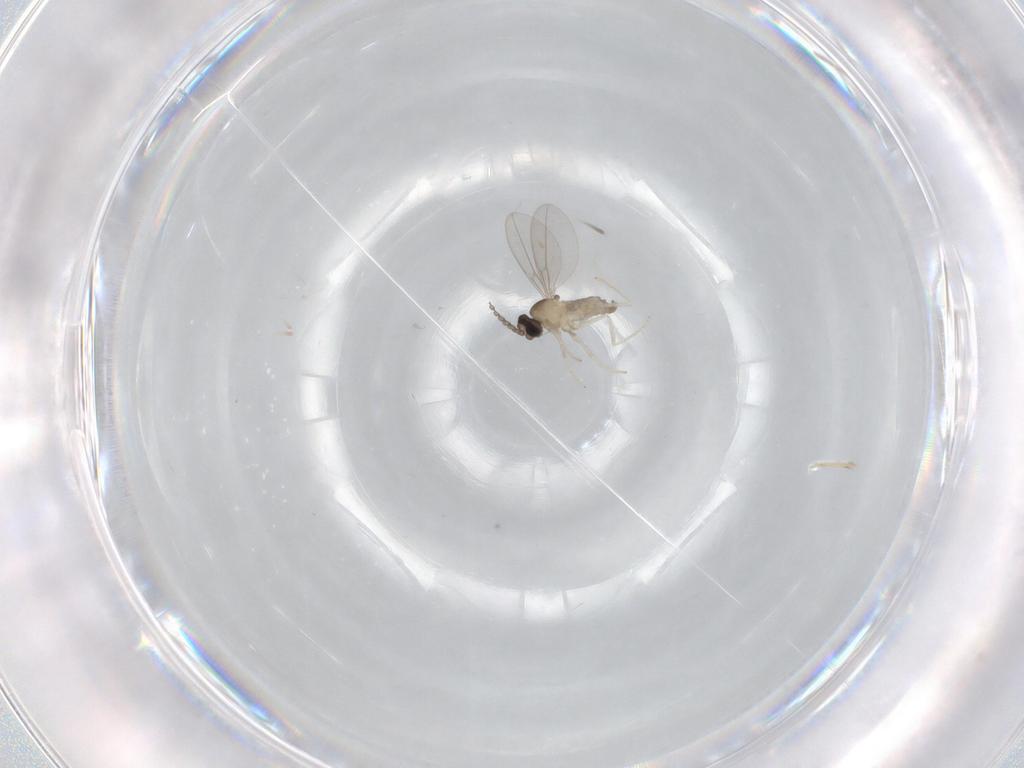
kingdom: Animalia
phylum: Arthropoda
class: Insecta
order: Diptera
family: Cecidomyiidae
